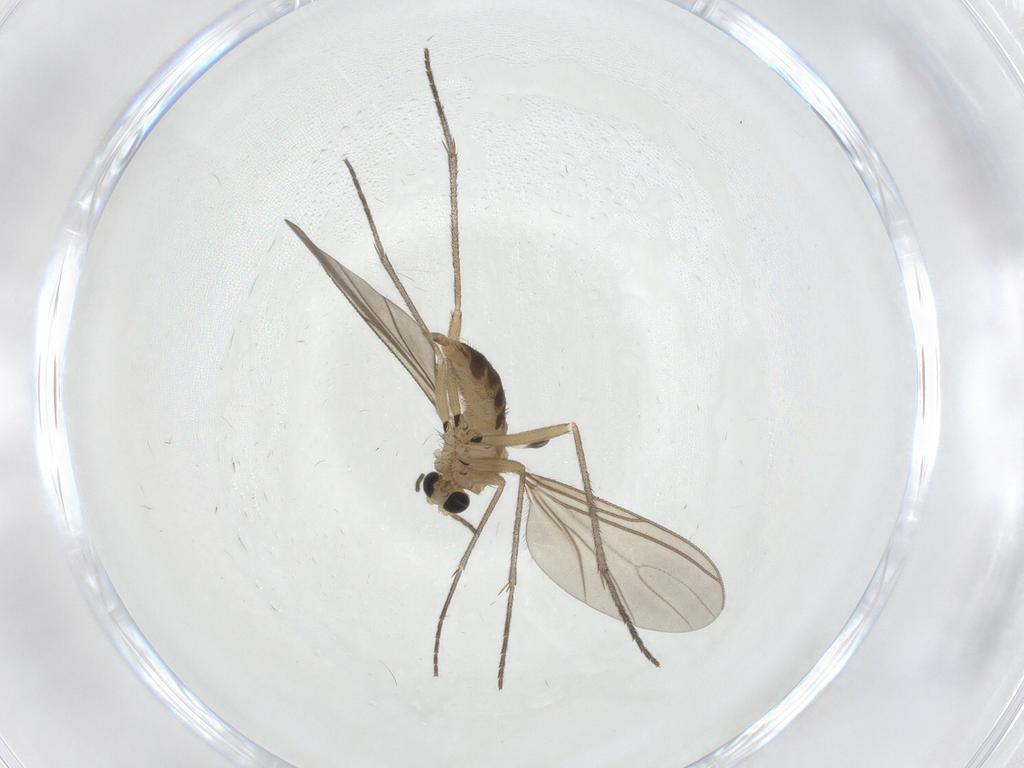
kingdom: Animalia
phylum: Arthropoda
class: Insecta
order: Diptera
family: Sciaridae
